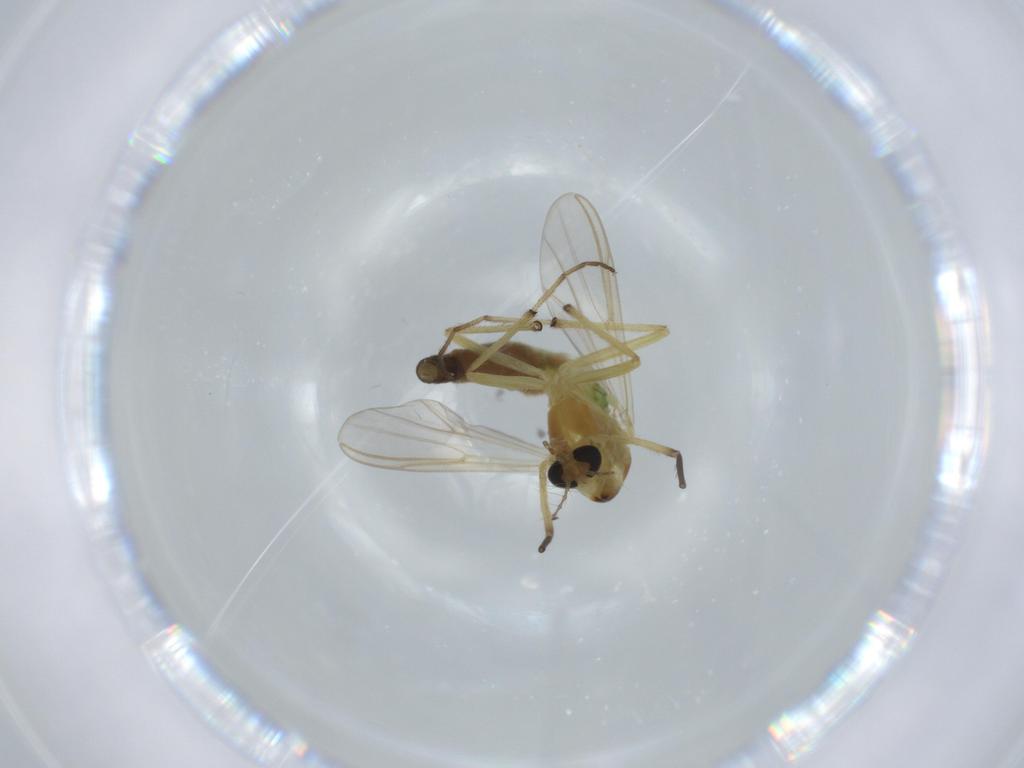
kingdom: Animalia
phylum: Arthropoda
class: Insecta
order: Diptera
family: Chironomidae
